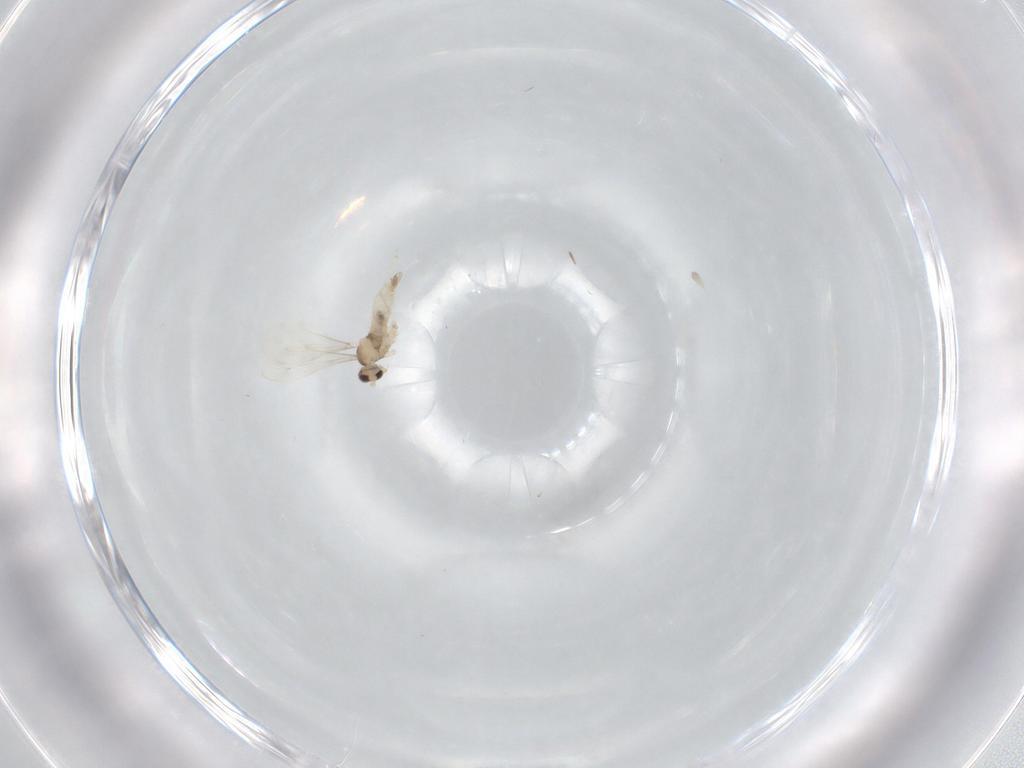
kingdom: Animalia
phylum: Arthropoda
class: Insecta
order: Diptera
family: Cecidomyiidae
